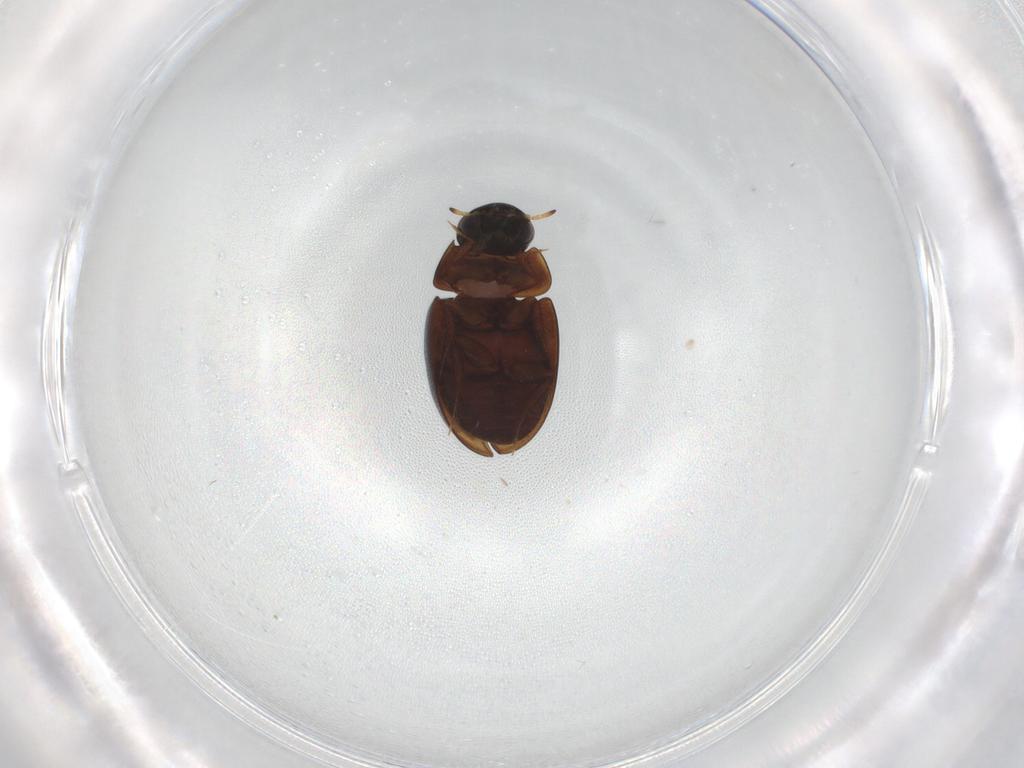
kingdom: Animalia
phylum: Arthropoda
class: Insecta
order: Coleoptera
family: Hydrophilidae
